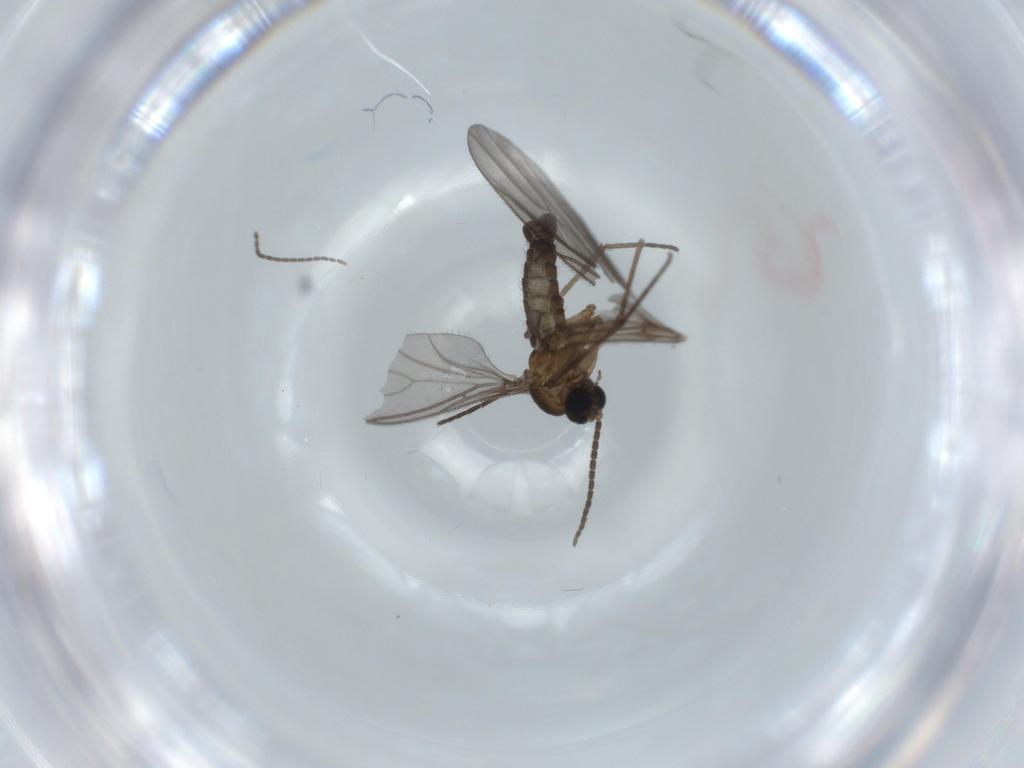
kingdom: Animalia
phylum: Arthropoda
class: Insecta
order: Diptera
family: Sciaridae
